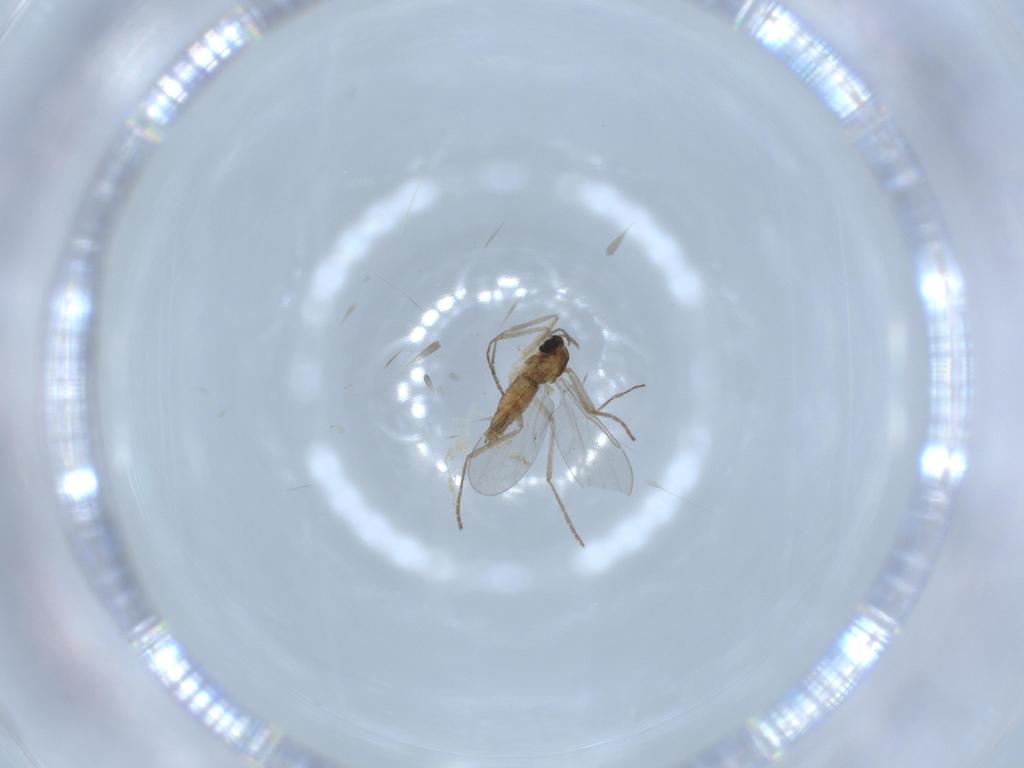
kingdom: Animalia
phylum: Arthropoda
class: Insecta
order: Diptera
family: Cecidomyiidae
